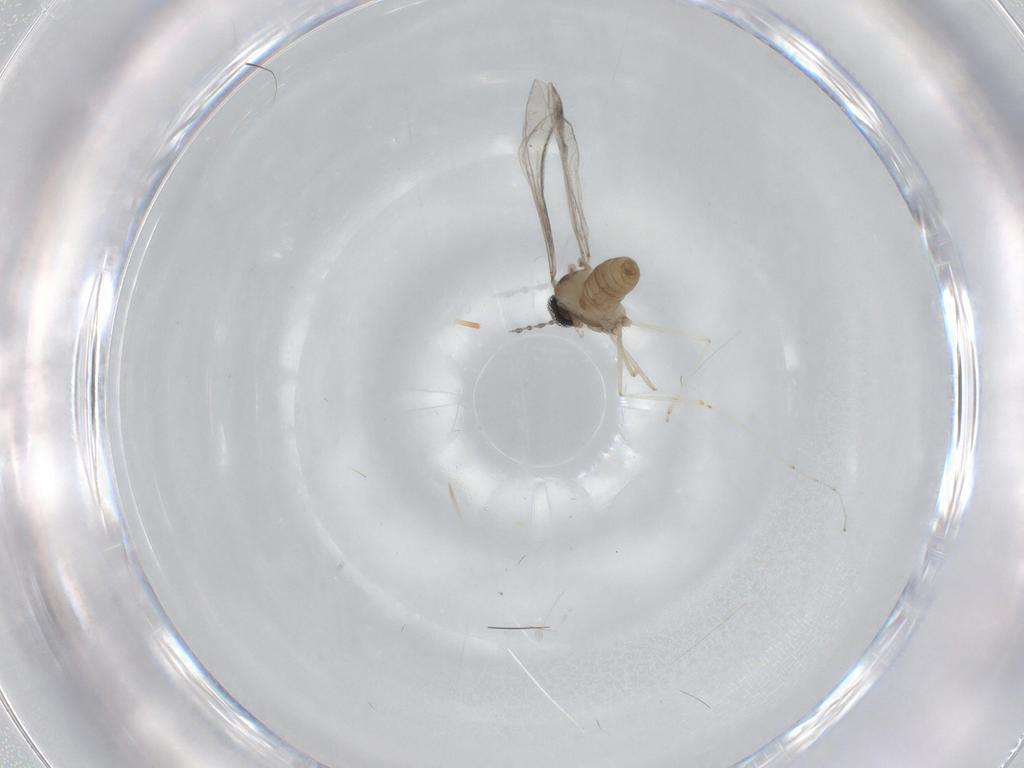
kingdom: Animalia
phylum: Arthropoda
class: Insecta
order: Diptera
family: Cecidomyiidae
